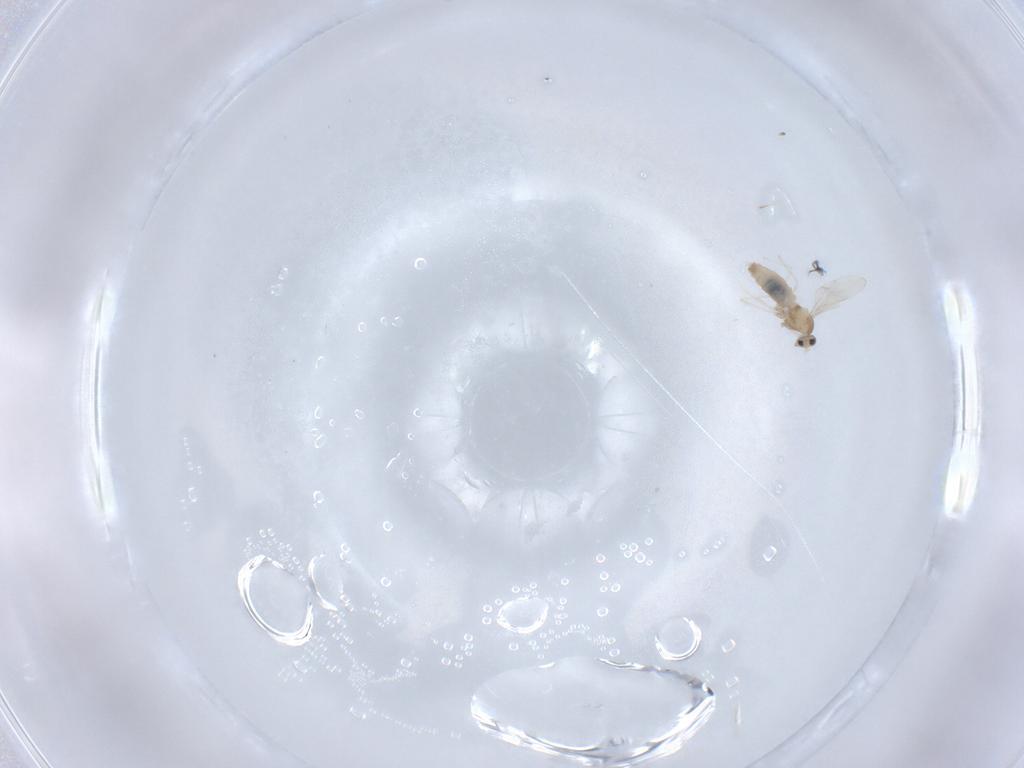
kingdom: Animalia
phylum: Arthropoda
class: Insecta
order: Diptera
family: Cecidomyiidae
